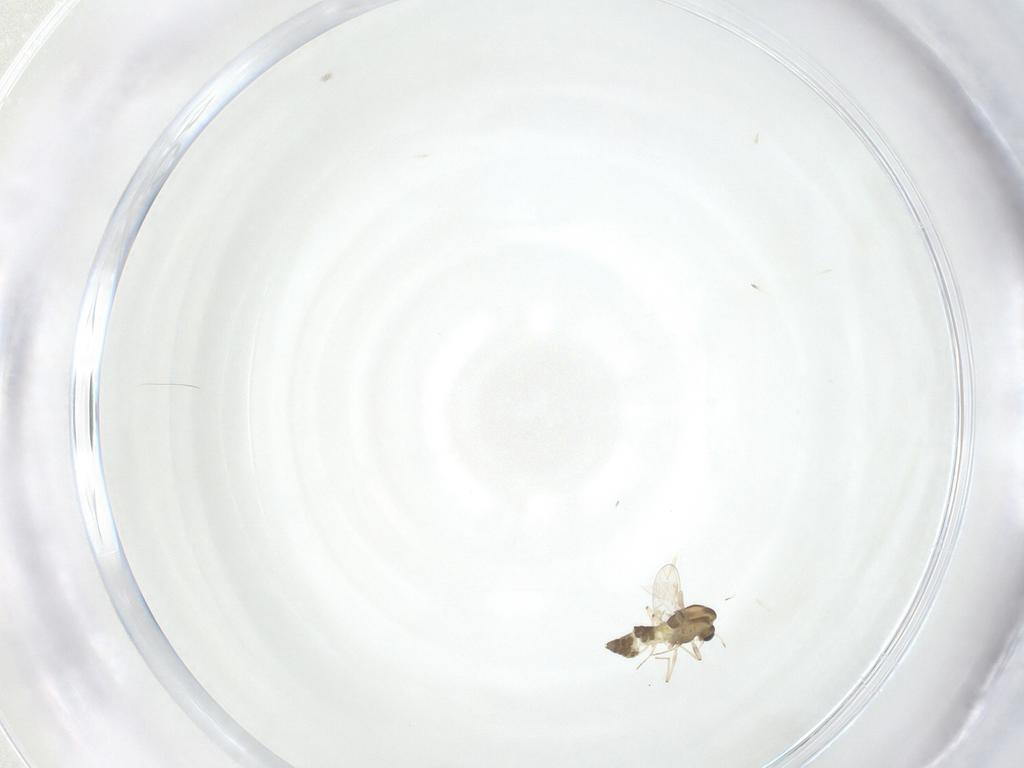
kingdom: Animalia
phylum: Arthropoda
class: Insecta
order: Diptera
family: Chironomidae
